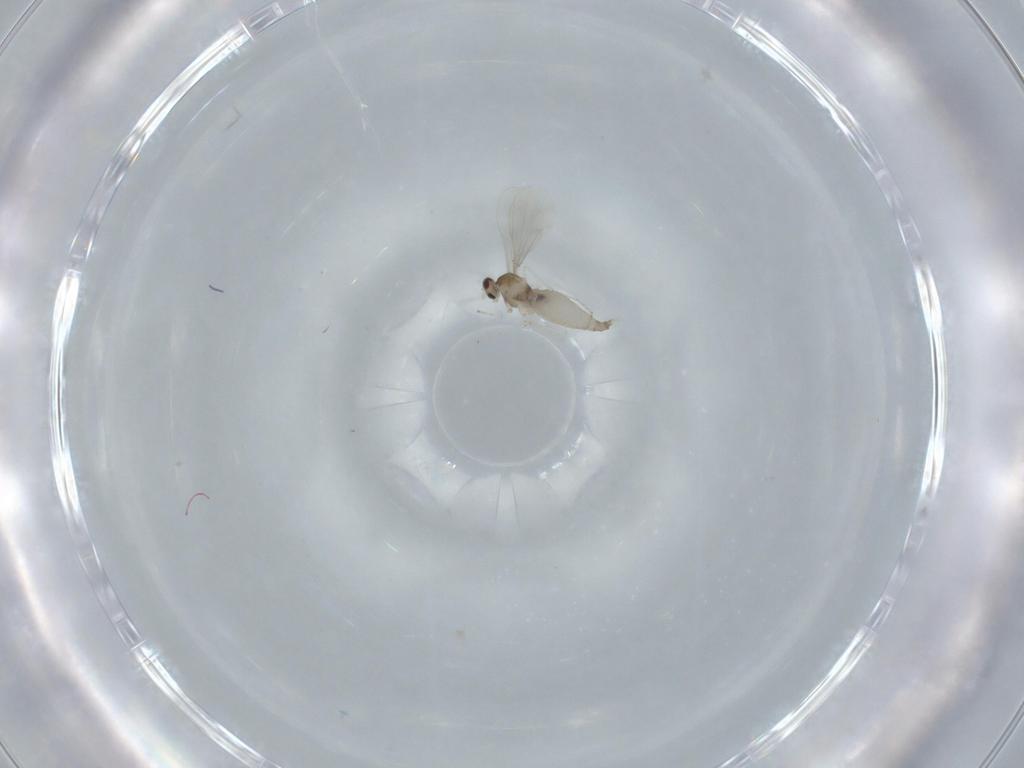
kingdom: Animalia
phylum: Arthropoda
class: Insecta
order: Diptera
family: Cecidomyiidae
